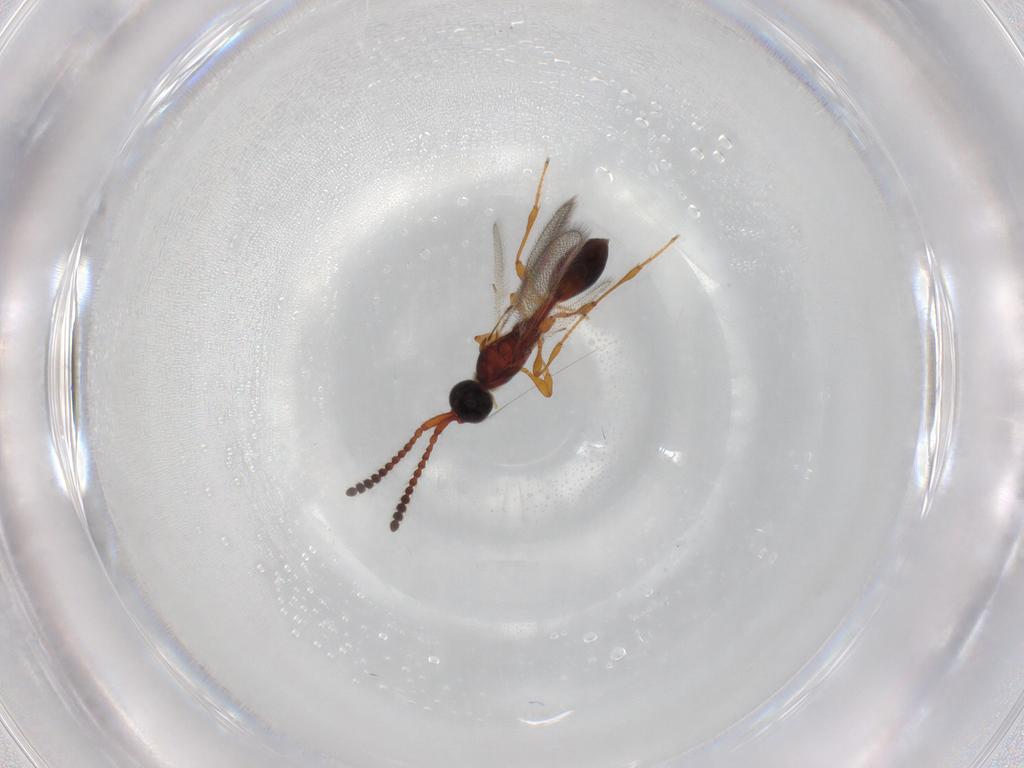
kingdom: Animalia
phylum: Arthropoda
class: Insecta
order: Hymenoptera
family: Diapriidae
